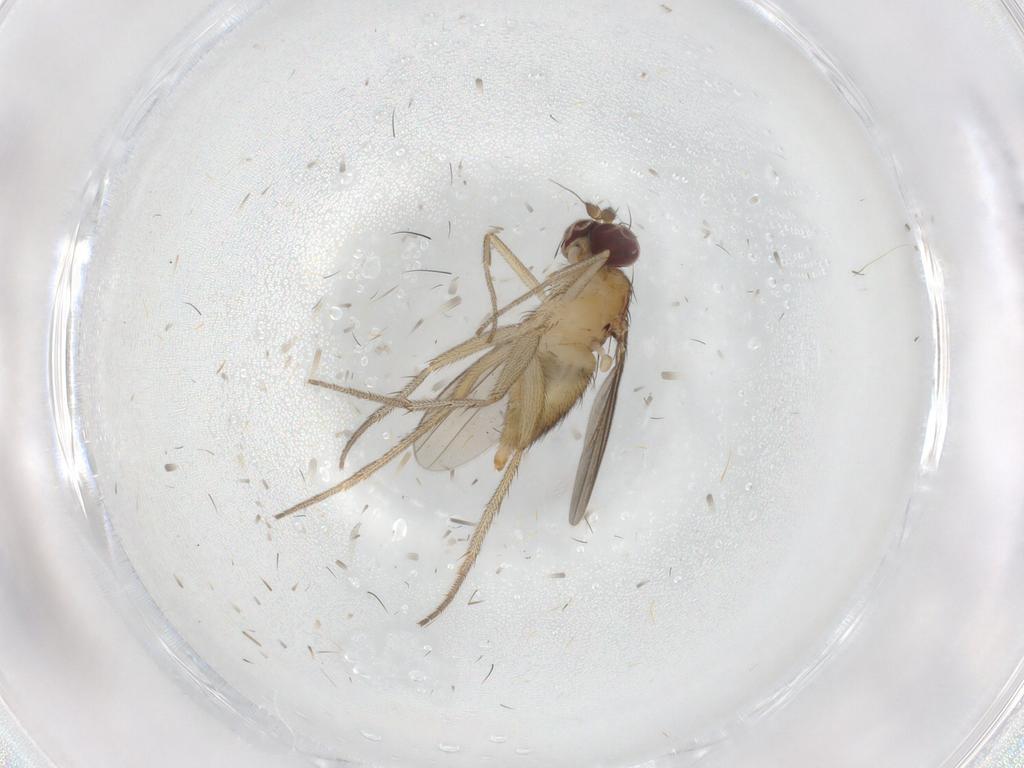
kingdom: Animalia
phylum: Arthropoda
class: Insecta
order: Diptera
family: Dolichopodidae
